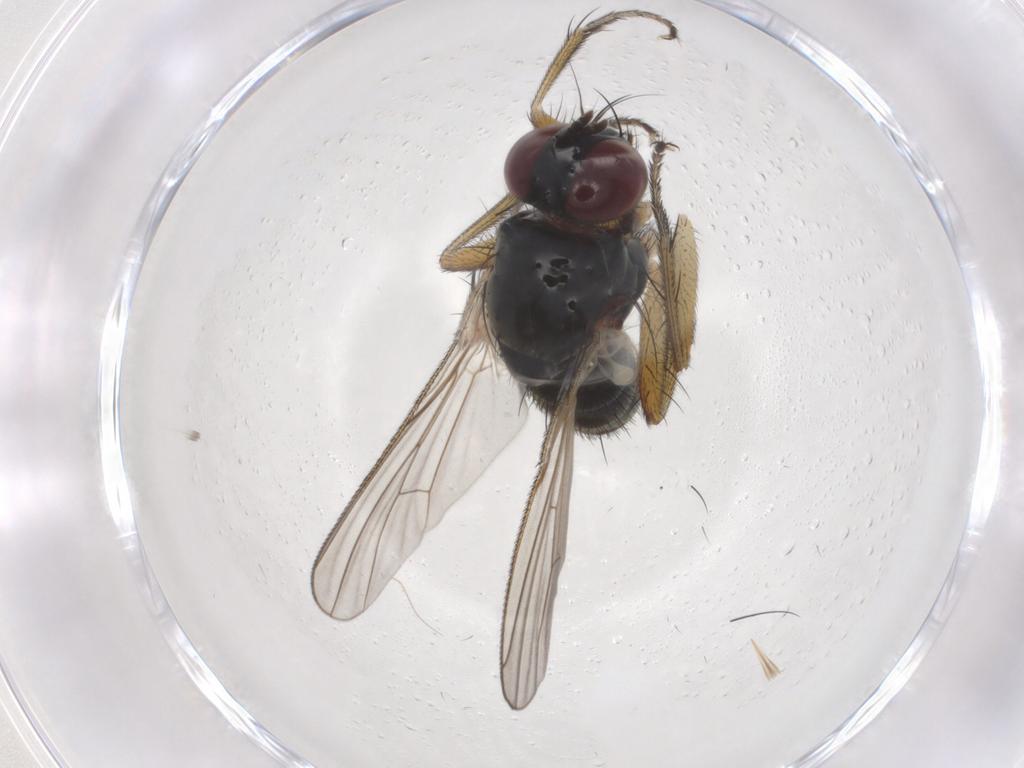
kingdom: Animalia
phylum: Arthropoda
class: Insecta
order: Diptera
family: Muscidae
